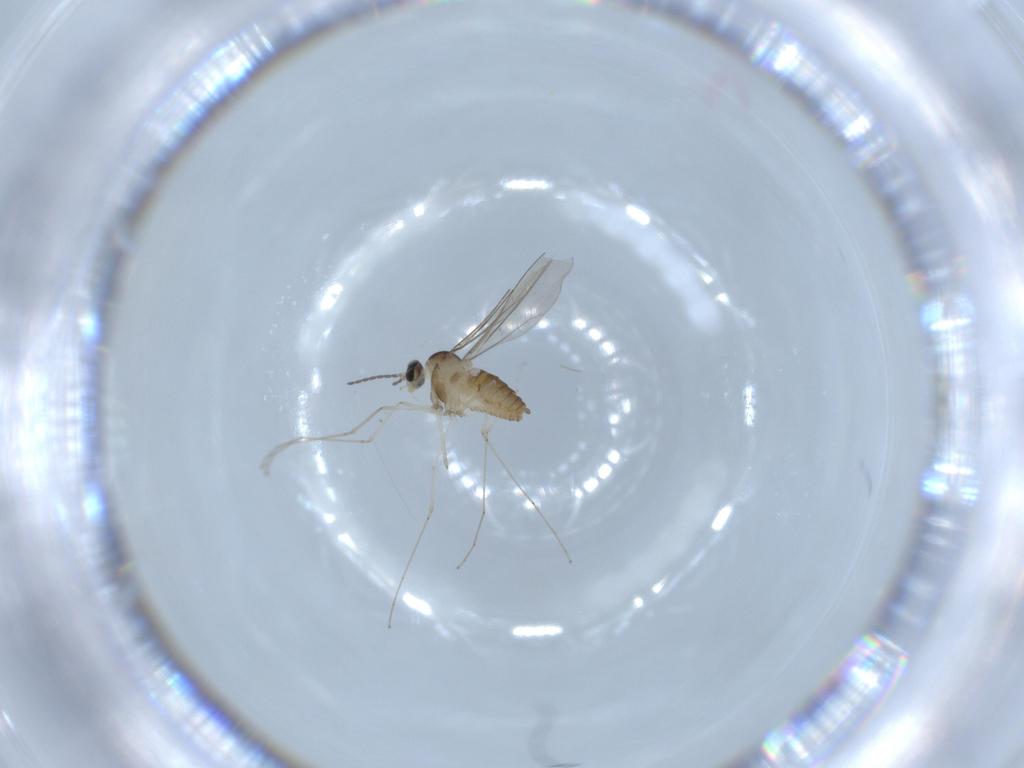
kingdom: Animalia
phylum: Arthropoda
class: Insecta
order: Diptera
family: Cecidomyiidae
